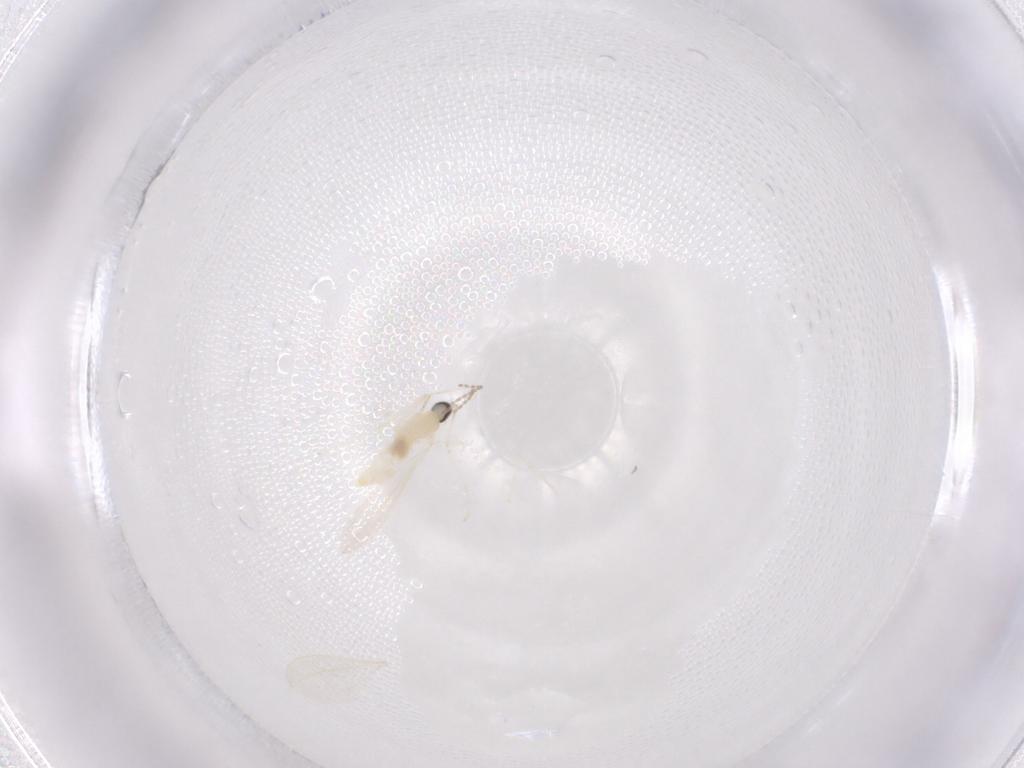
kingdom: Animalia
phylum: Arthropoda
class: Insecta
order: Diptera
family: Cecidomyiidae
